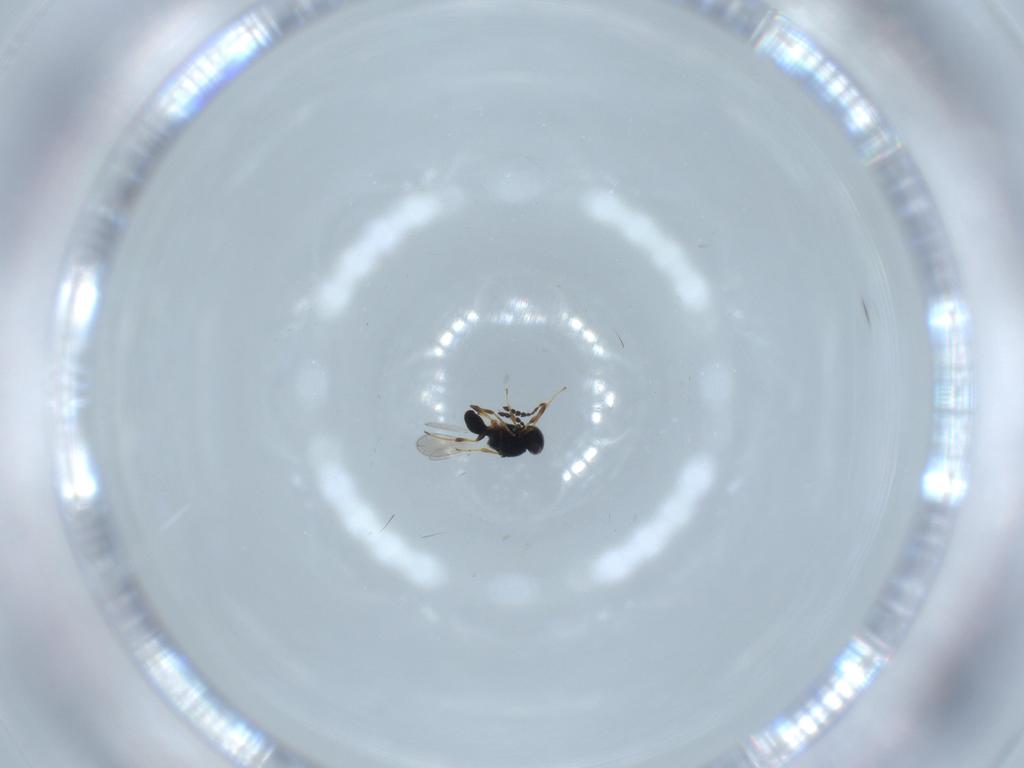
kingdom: Animalia
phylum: Arthropoda
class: Insecta
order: Hymenoptera
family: Platygastridae
